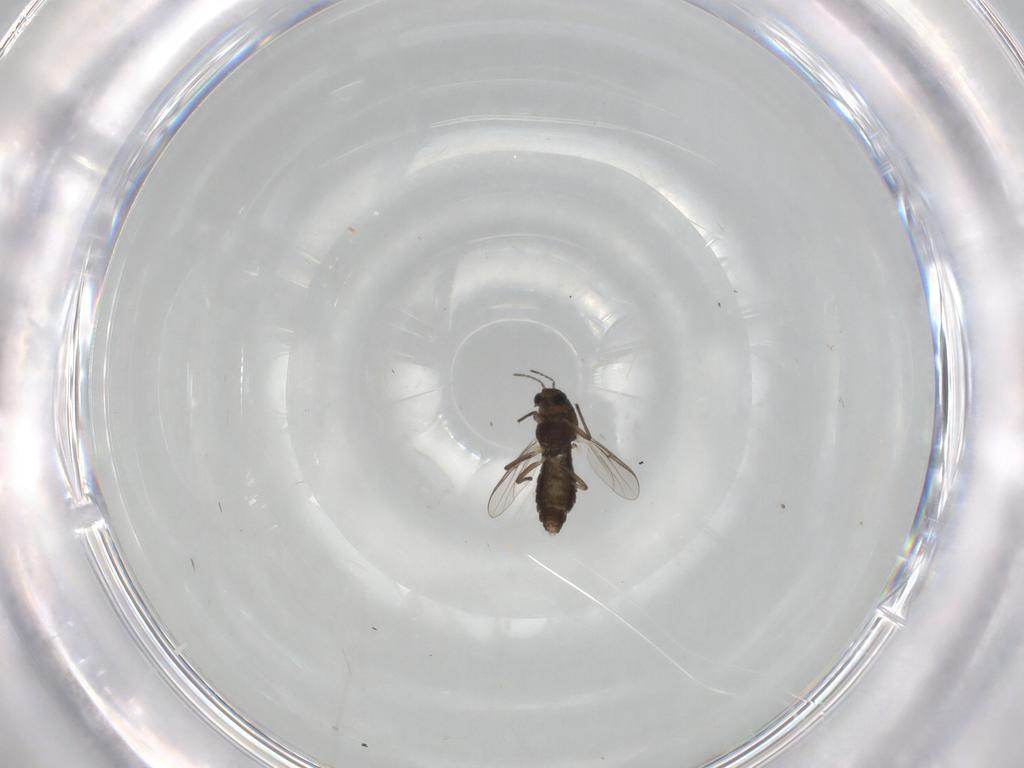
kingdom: Animalia
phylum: Arthropoda
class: Insecta
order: Diptera
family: Chironomidae
